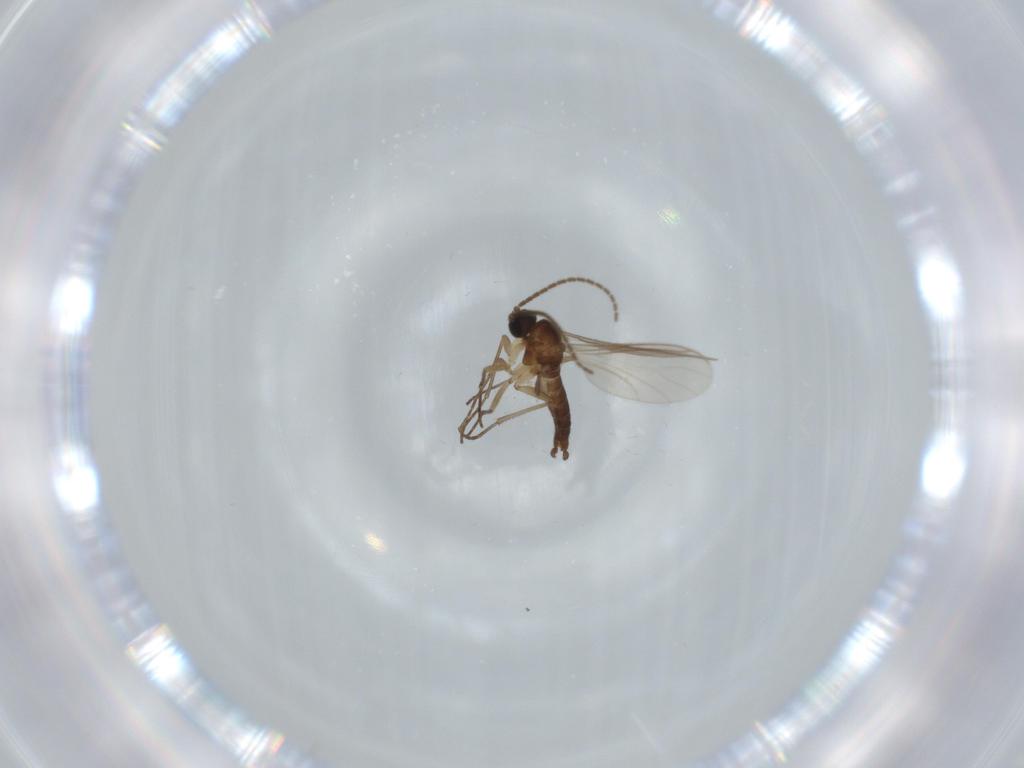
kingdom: Animalia
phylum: Arthropoda
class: Insecta
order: Diptera
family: Sciaridae
